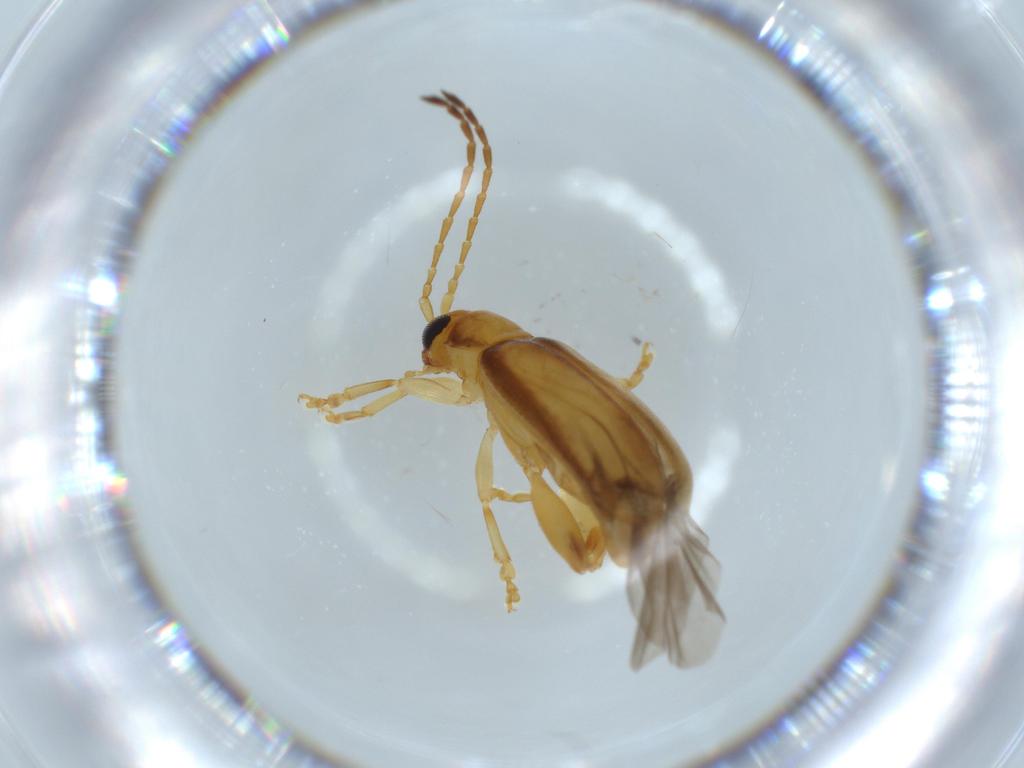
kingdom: Animalia
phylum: Arthropoda
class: Insecta
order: Coleoptera
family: Chrysomelidae
